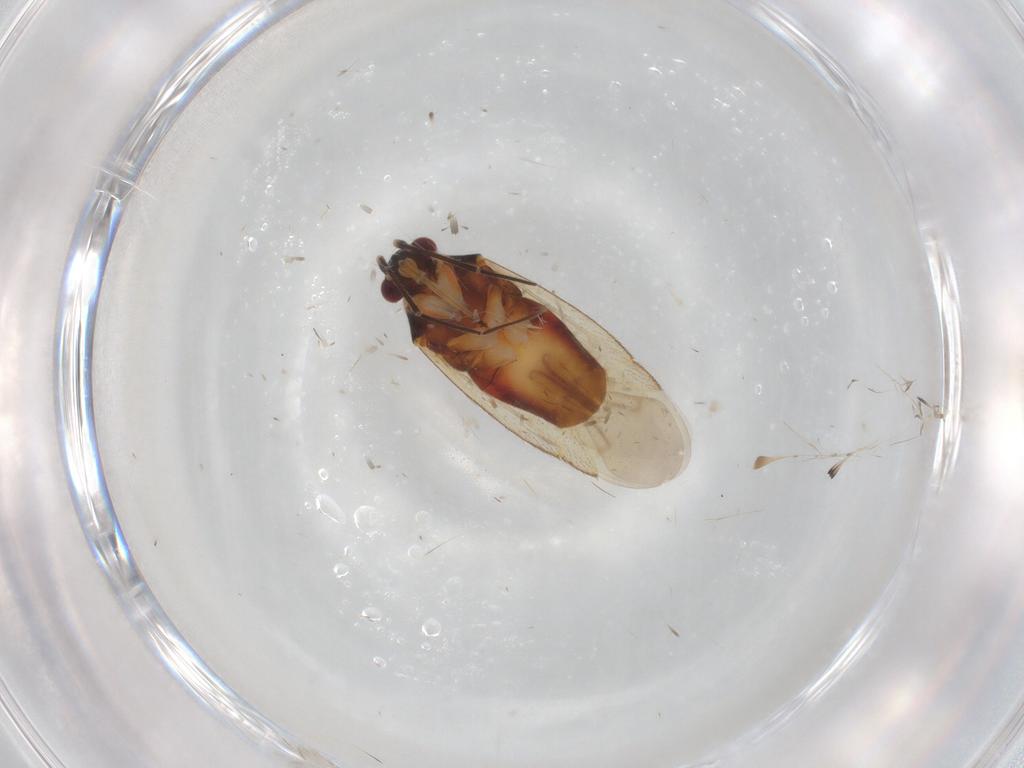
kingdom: Animalia
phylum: Arthropoda
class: Insecta
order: Hemiptera
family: Miridae
